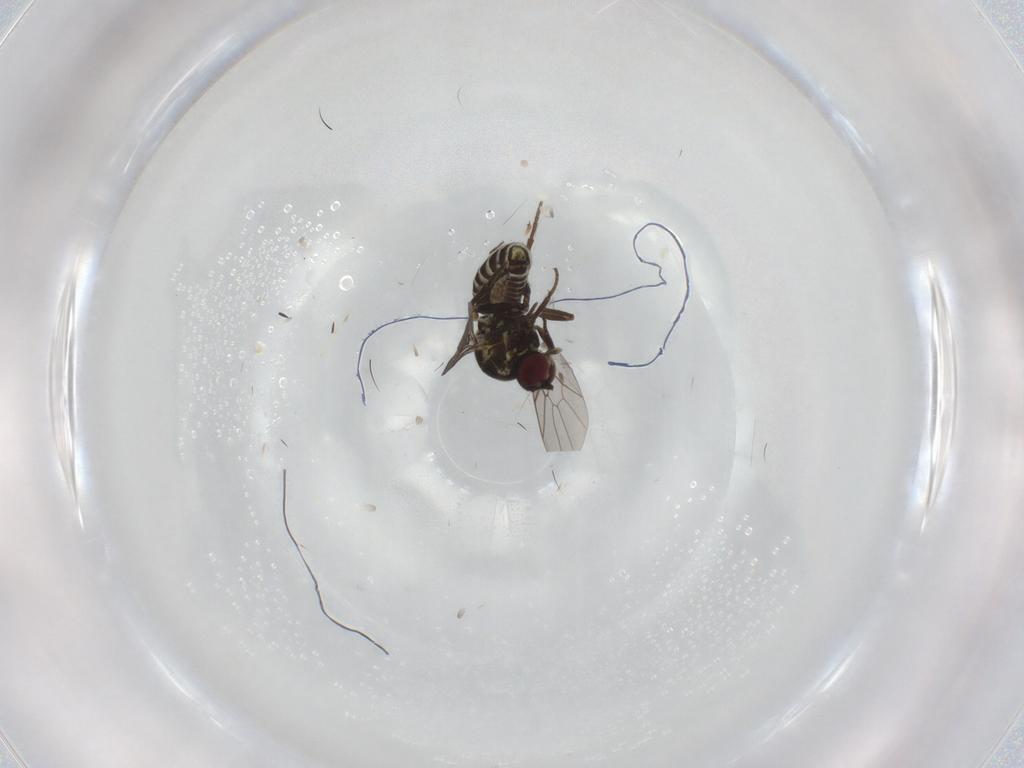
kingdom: Animalia
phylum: Arthropoda
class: Insecta
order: Diptera
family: Mythicomyiidae
